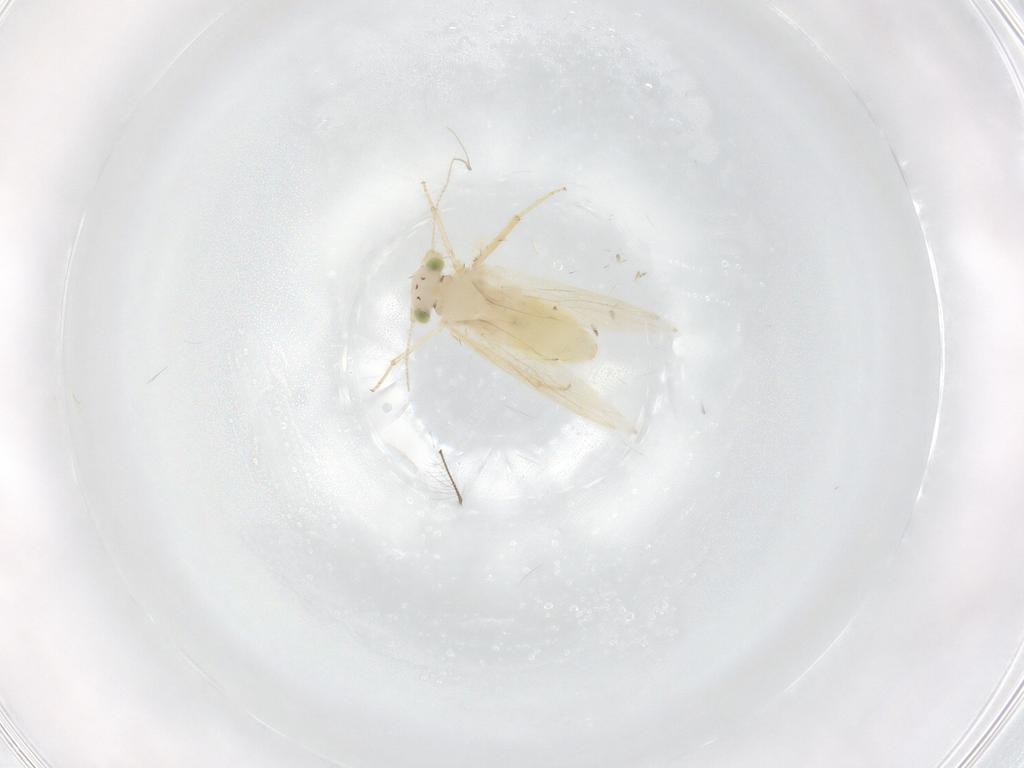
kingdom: Animalia
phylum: Arthropoda
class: Insecta
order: Psocodea
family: Lepidopsocidae
